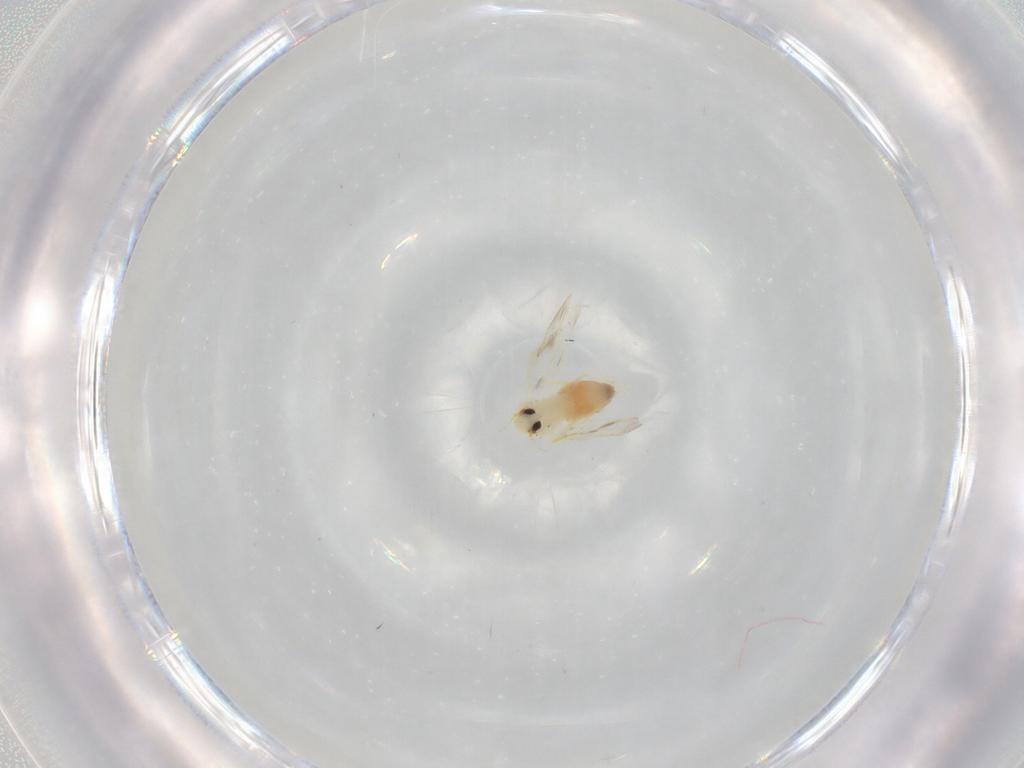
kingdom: Animalia
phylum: Arthropoda
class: Insecta
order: Hemiptera
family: Aleyrodidae
